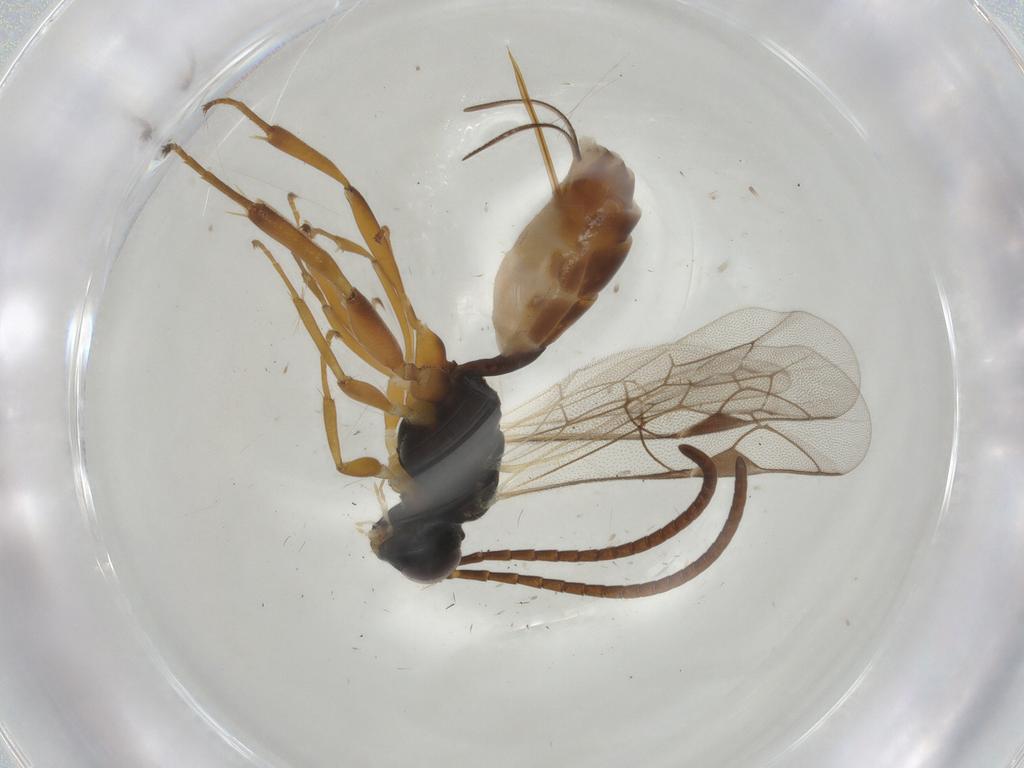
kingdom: Animalia
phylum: Arthropoda
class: Insecta
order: Hymenoptera
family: Ichneumonidae
